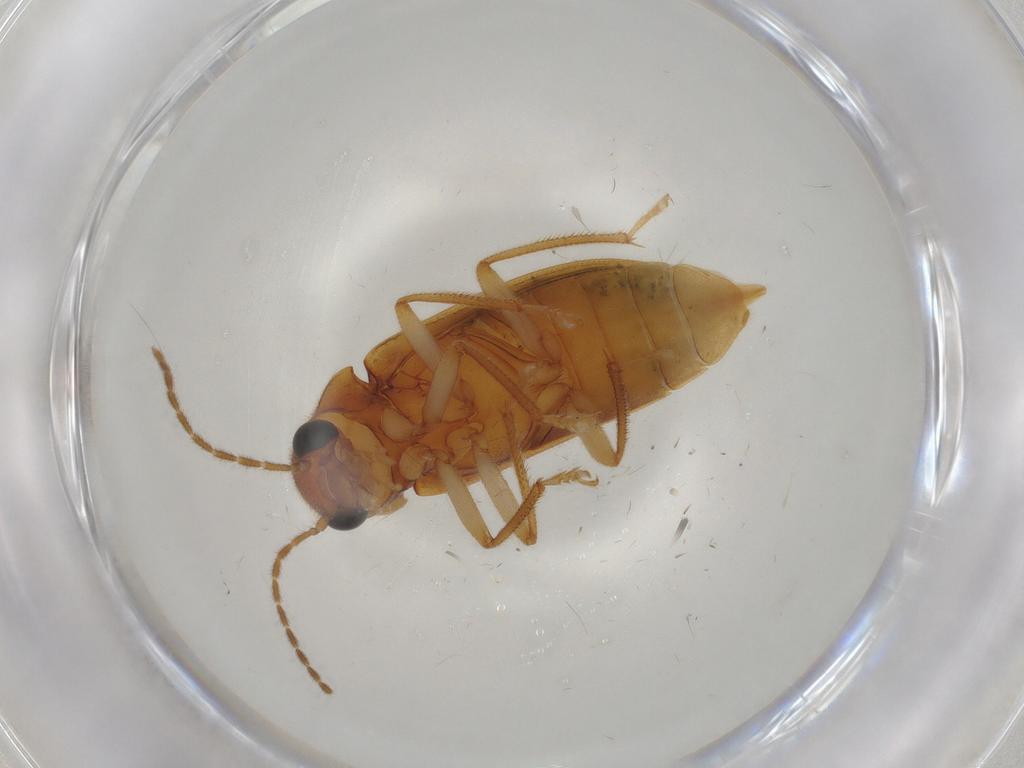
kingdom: Animalia
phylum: Arthropoda
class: Insecta
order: Coleoptera
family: Ptilodactylidae
